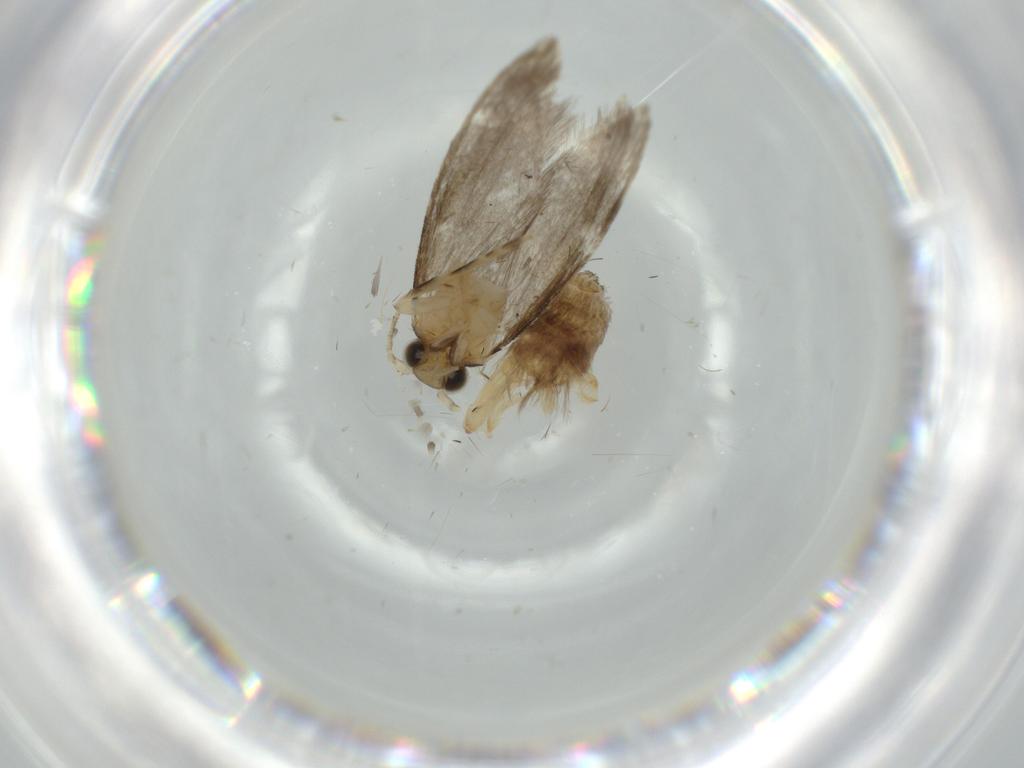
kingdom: Animalia
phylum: Arthropoda
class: Insecta
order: Lepidoptera
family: Tineidae
